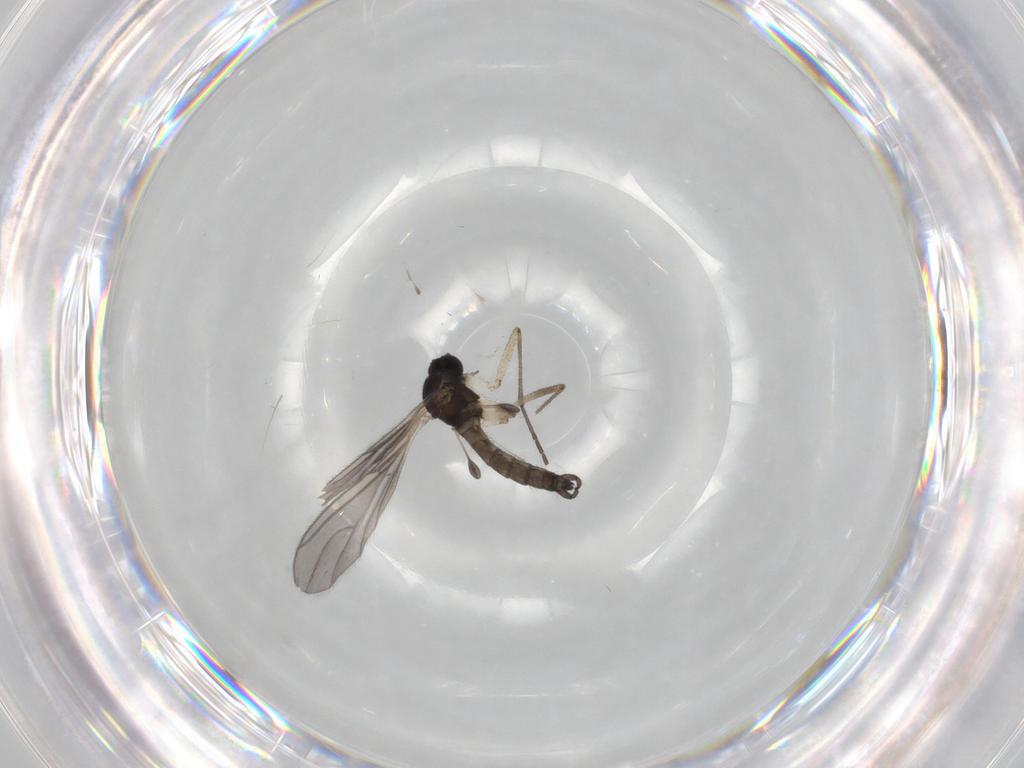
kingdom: Animalia
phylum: Arthropoda
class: Insecta
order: Diptera
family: Sciaridae
